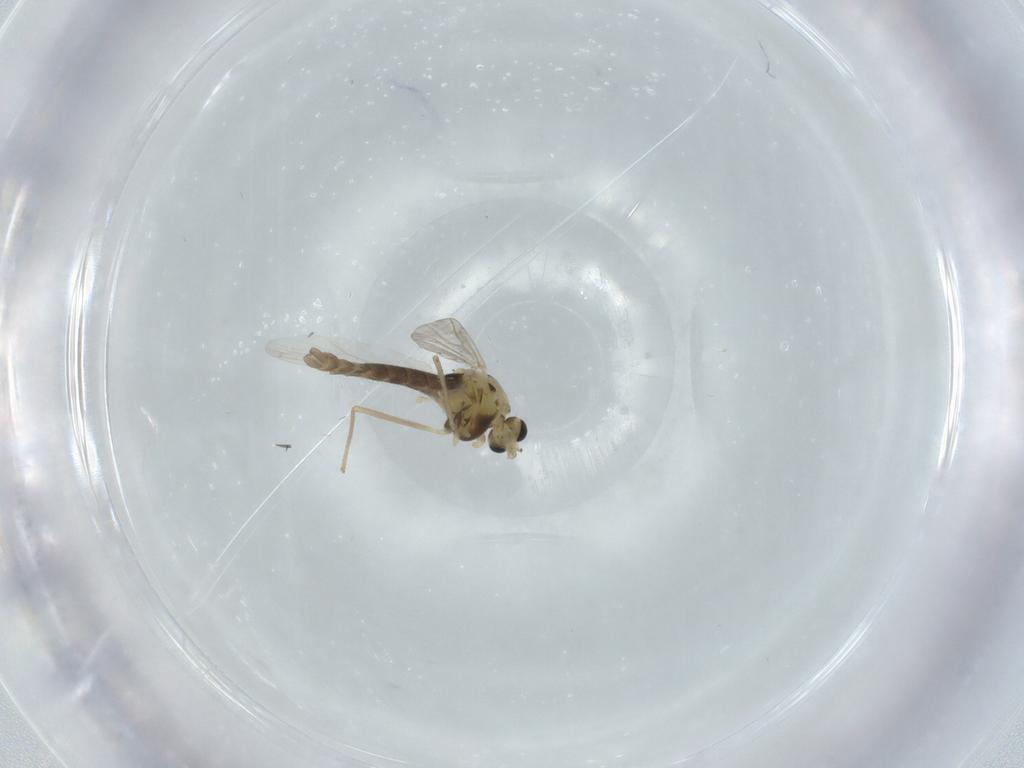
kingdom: Animalia
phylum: Arthropoda
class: Insecta
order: Diptera
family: Chironomidae
